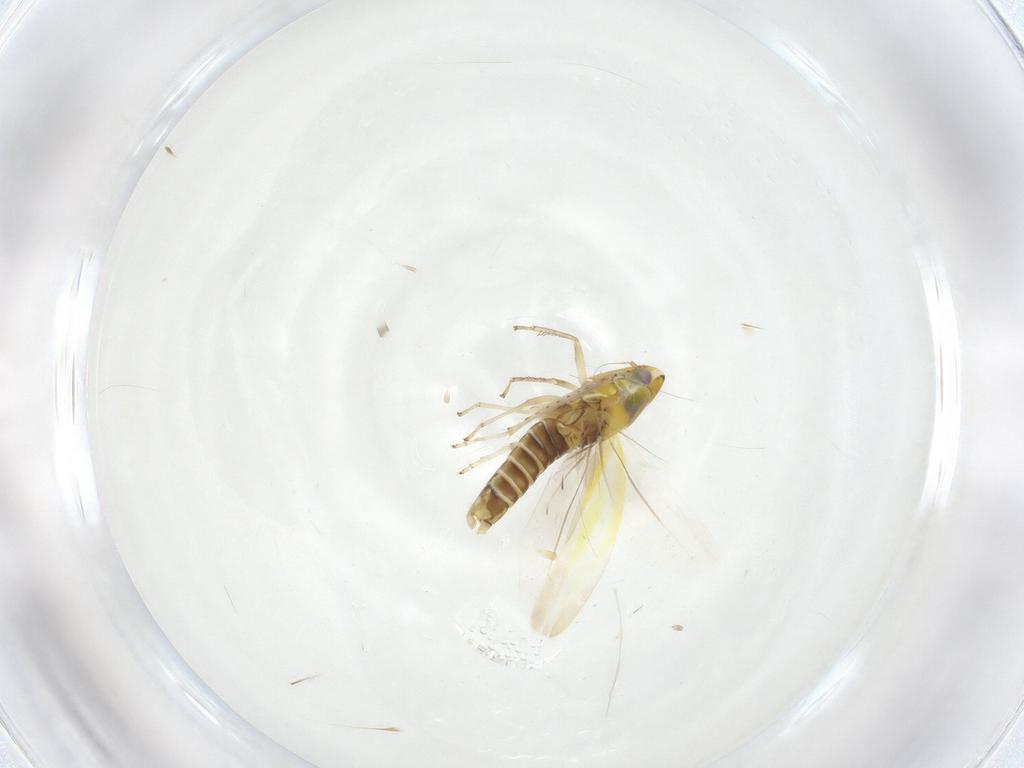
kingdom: Animalia
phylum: Arthropoda
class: Insecta
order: Hemiptera
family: Cicadellidae
